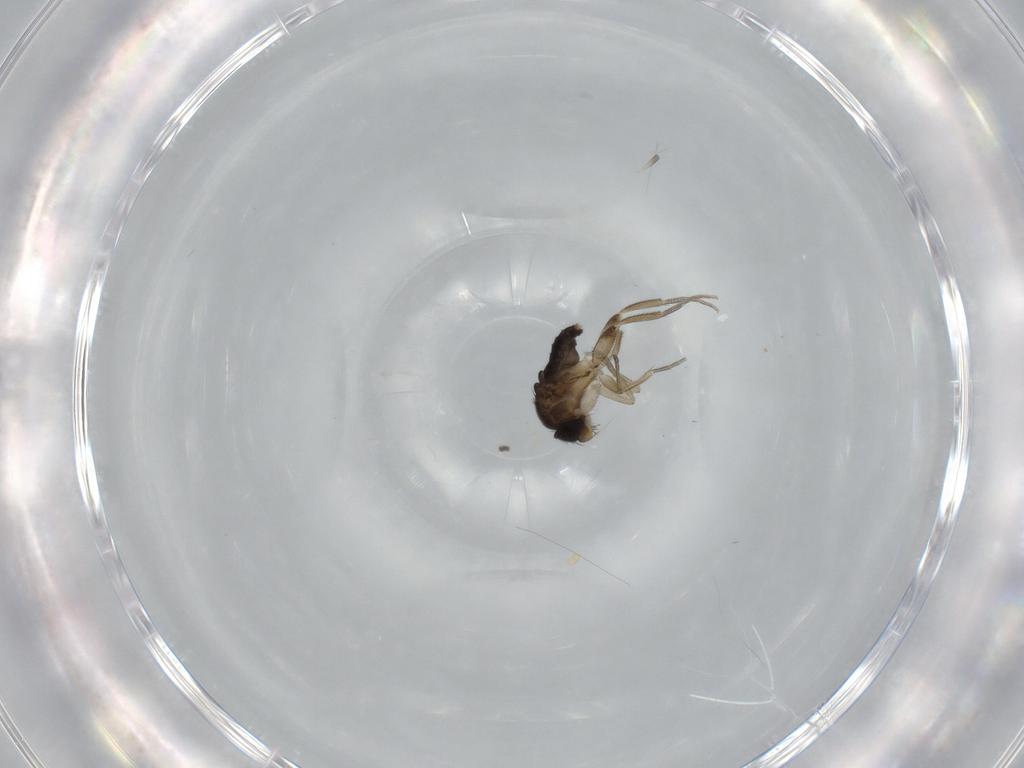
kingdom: Animalia
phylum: Arthropoda
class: Insecta
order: Diptera
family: Phoridae
